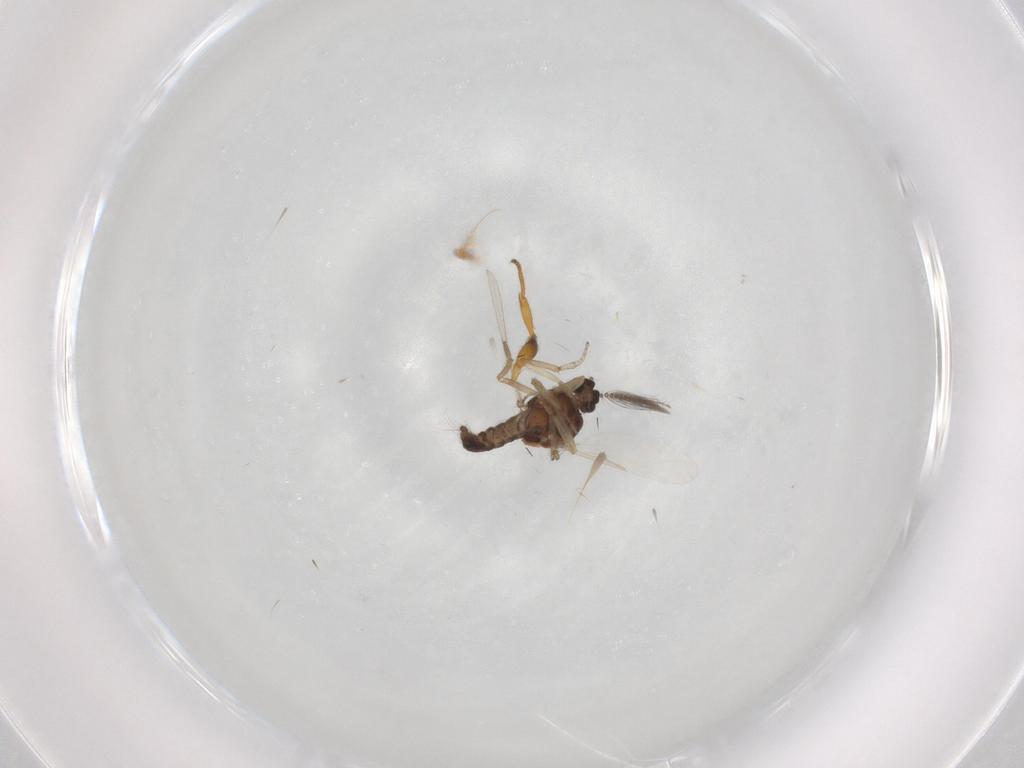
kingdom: Animalia
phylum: Arthropoda
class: Insecta
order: Diptera
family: Ceratopogonidae
